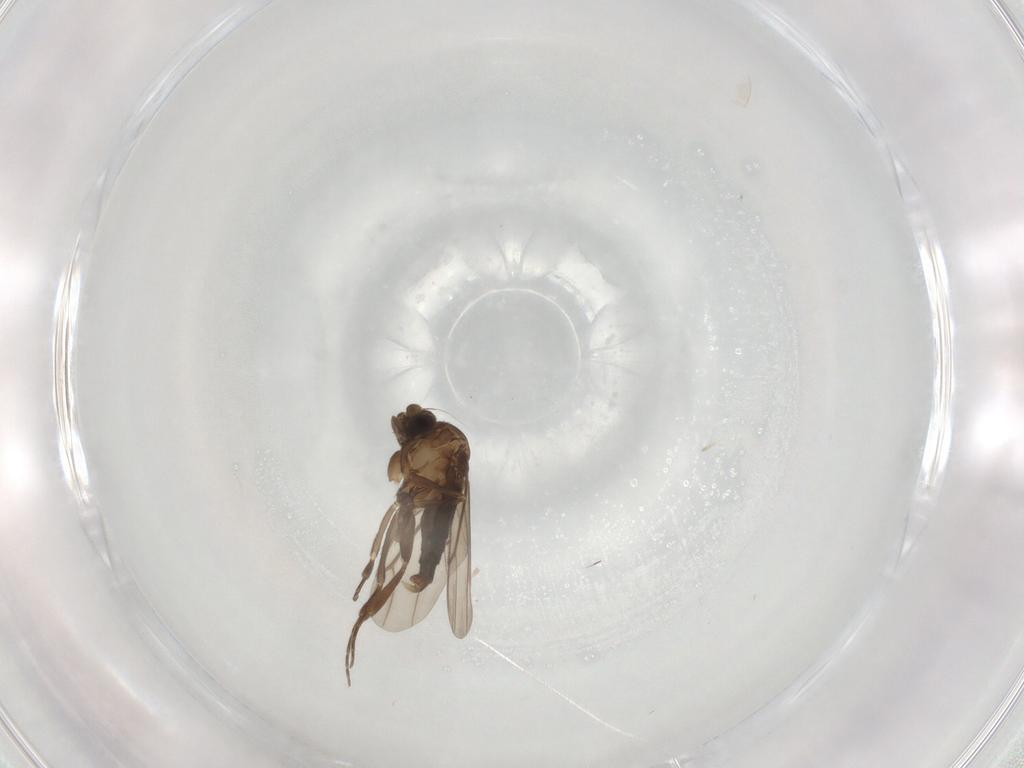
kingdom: Animalia
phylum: Arthropoda
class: Insecta
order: Diptera
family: Dolichopodidae
